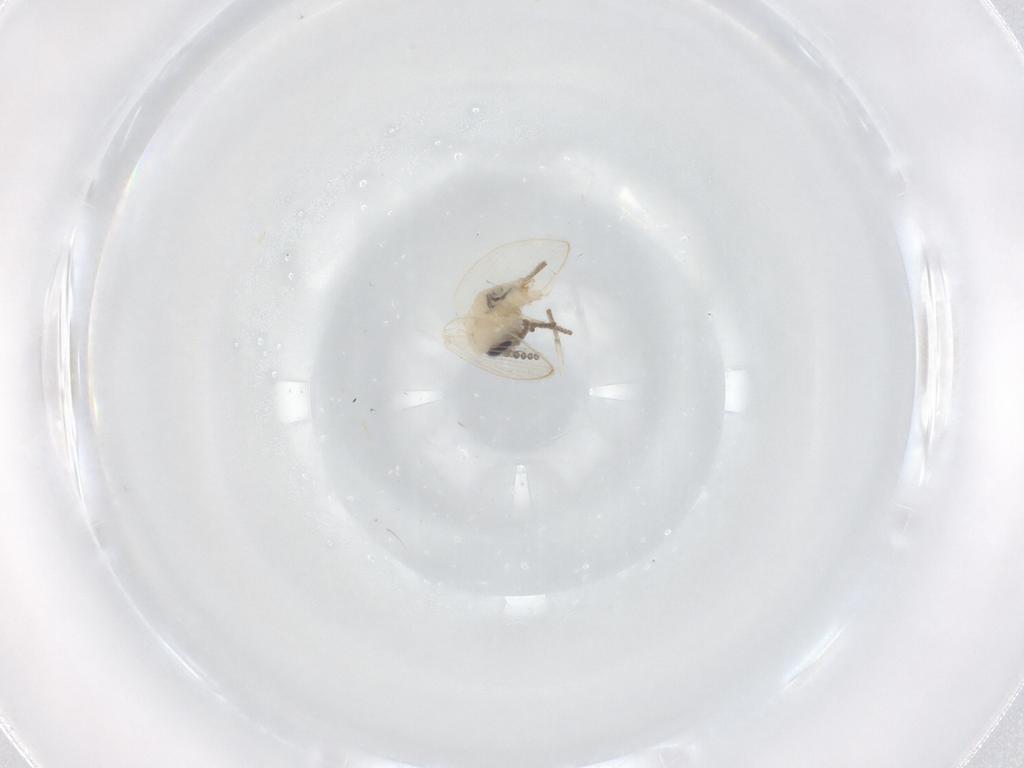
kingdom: Animalia
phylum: Arthropoda
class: Insecta
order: Diptera
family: Psychodidae
